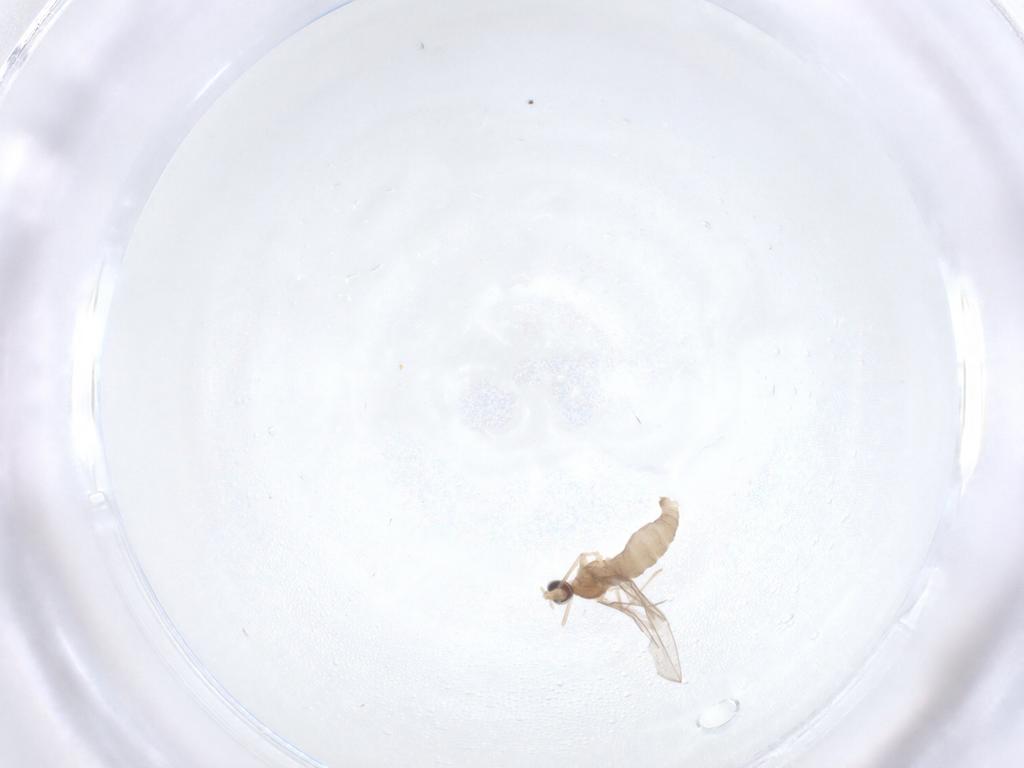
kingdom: Animalia
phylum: Arthropoda
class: Insecta
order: Diptera
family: Cecidomyiidae
